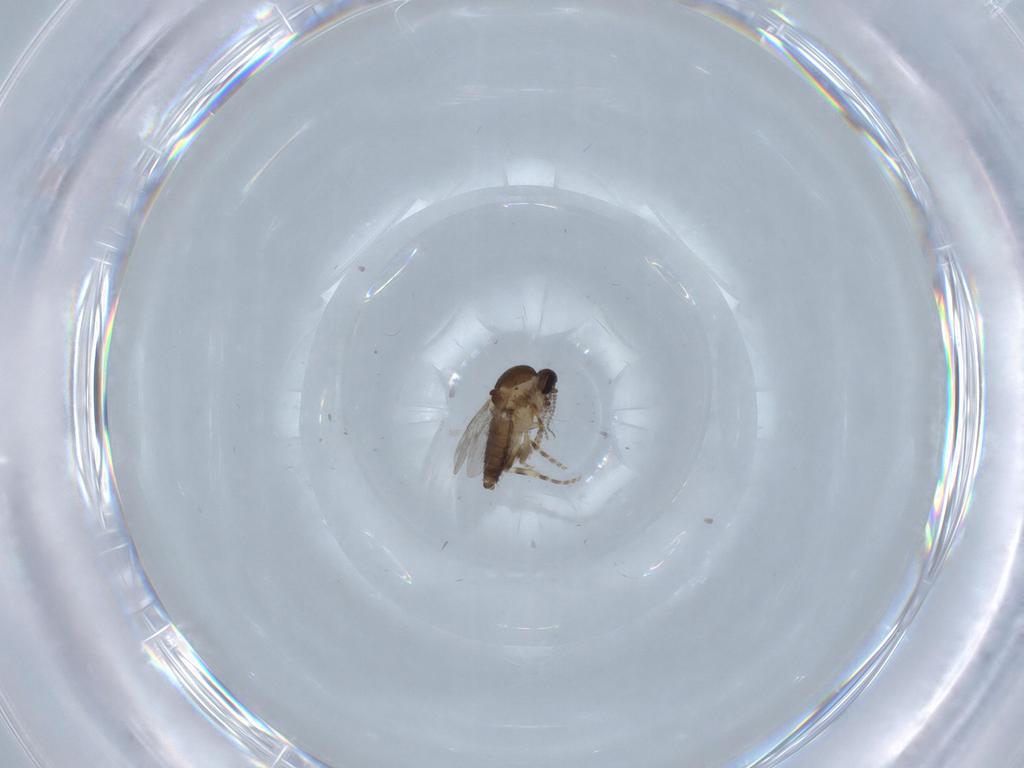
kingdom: Animalia
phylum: Arthropoda
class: Insecta
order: Diptera
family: Ceratopogonidae
